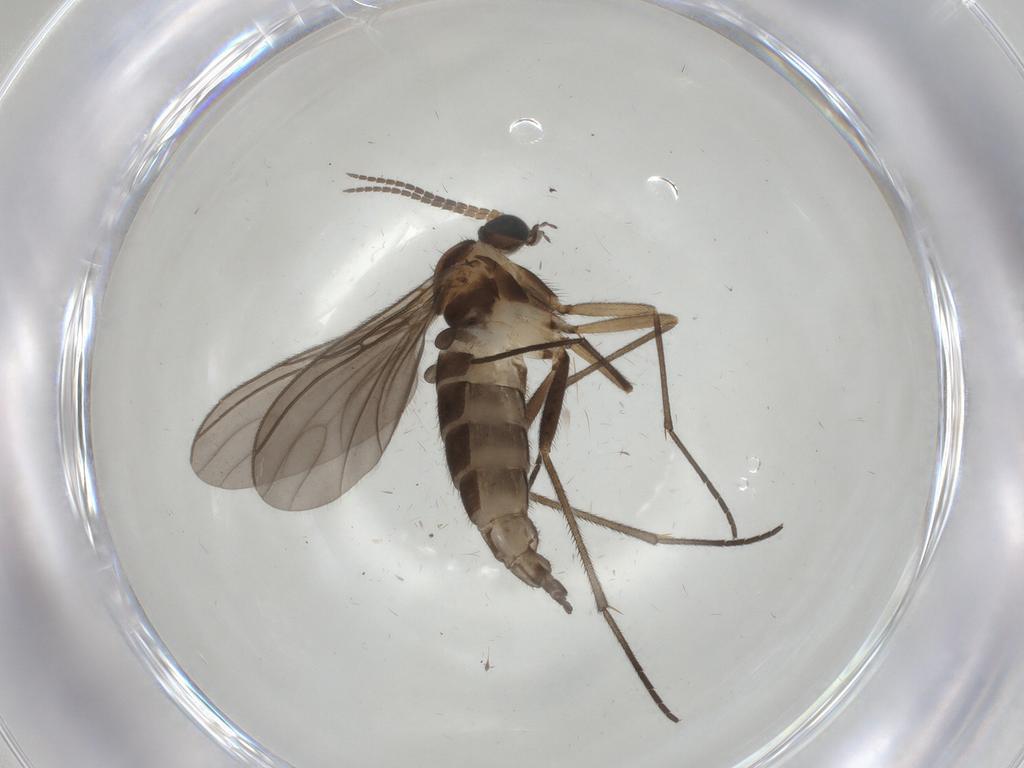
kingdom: Animalia
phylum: Arthropoda
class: Insecta
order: Diptera
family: Sciaridae
